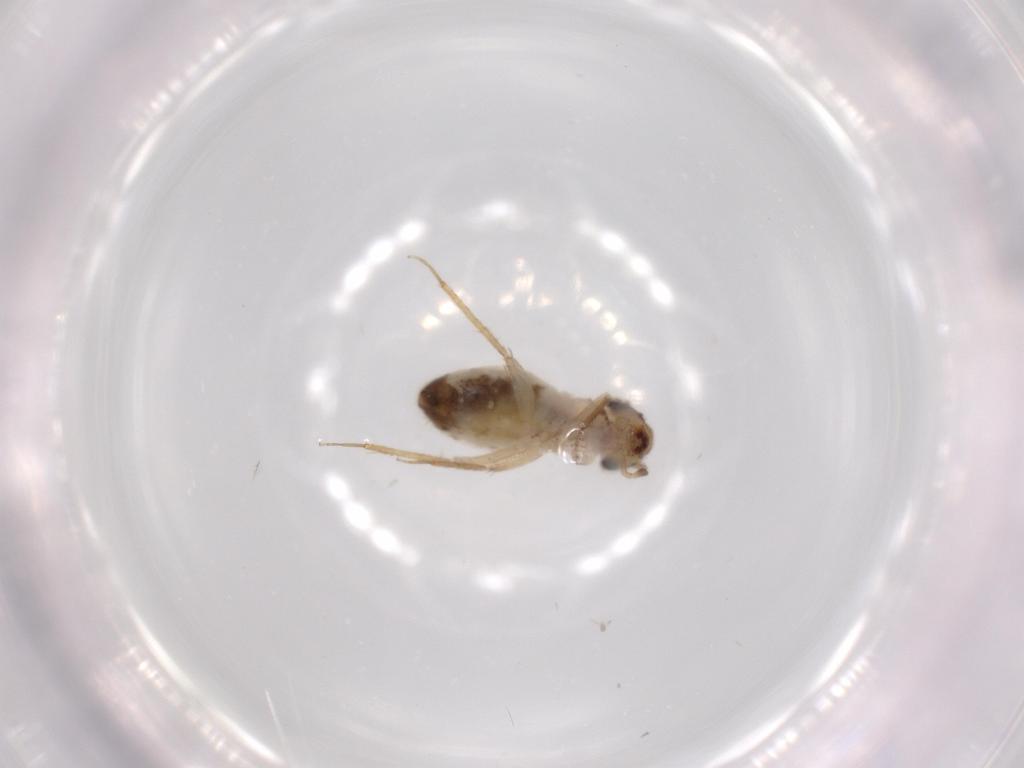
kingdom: Animalia
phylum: Arthropoda
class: Insecta
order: Psocodea
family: Lepidopsocidae
